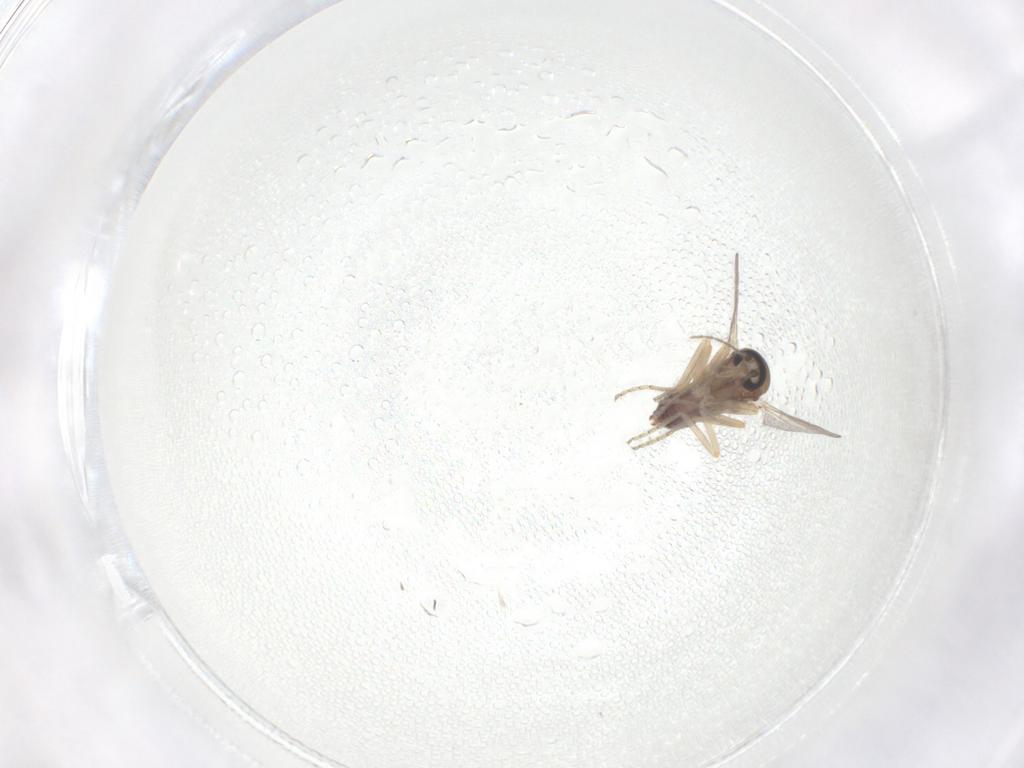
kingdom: Animalia
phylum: Arthropoda
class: Insecta
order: Diptera
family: Ceratopogonidae
